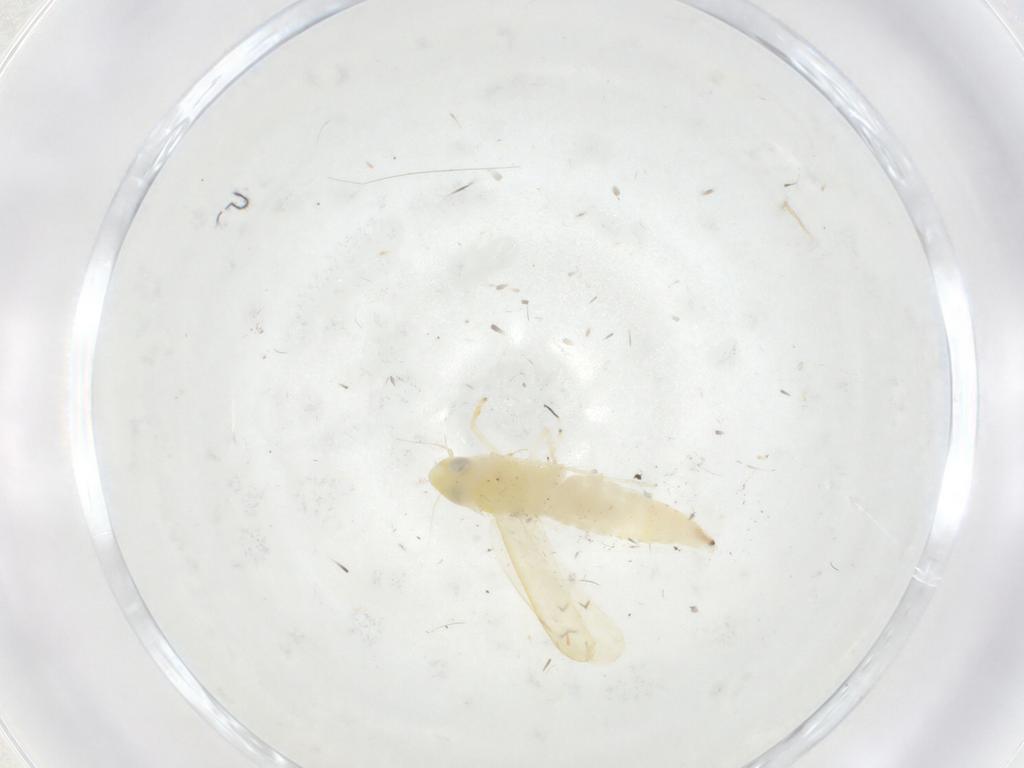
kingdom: Animalia
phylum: Arthropoda
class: Insecta
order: Hemiptera
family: Cicadellidae
